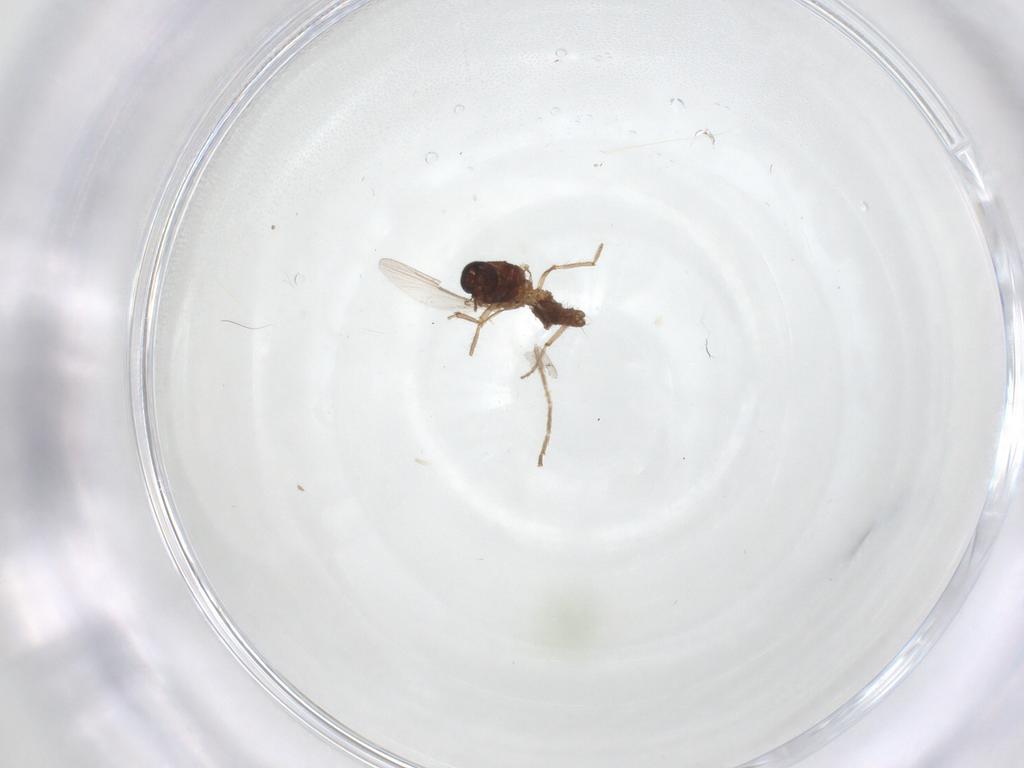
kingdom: Animalia
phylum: Arthropoda
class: Insecta
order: Diptera
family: Ceratopogonidae
